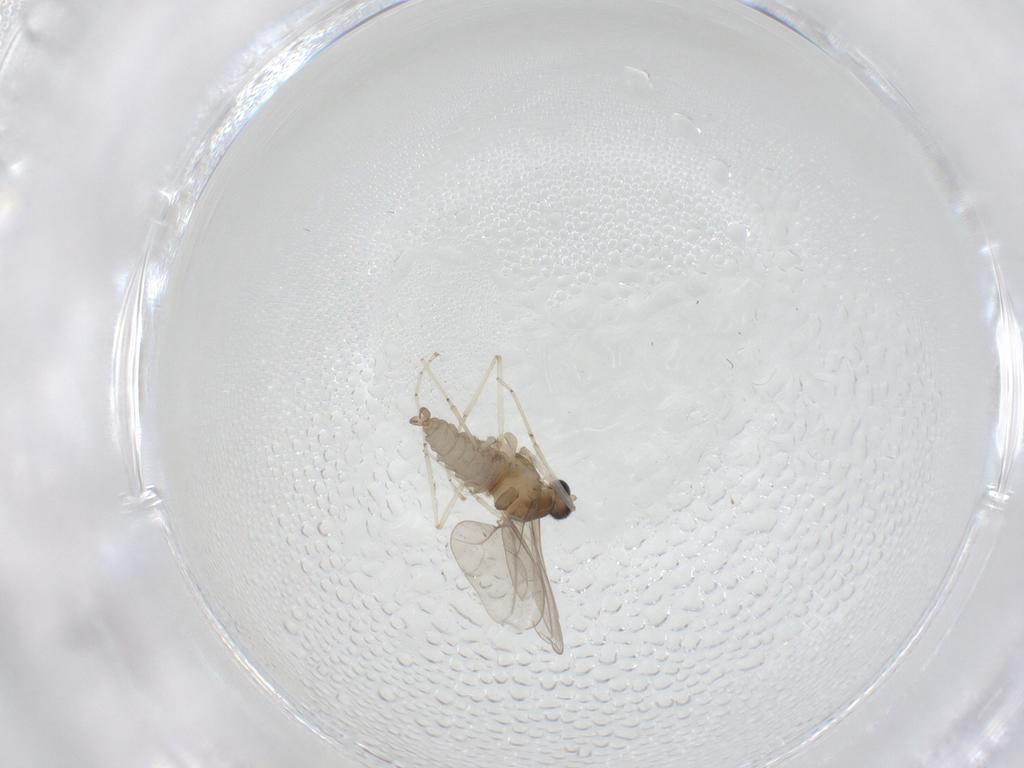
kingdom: Animalia
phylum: Arthropoda
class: Insecta
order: Diptera
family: Cecidomyiidae
